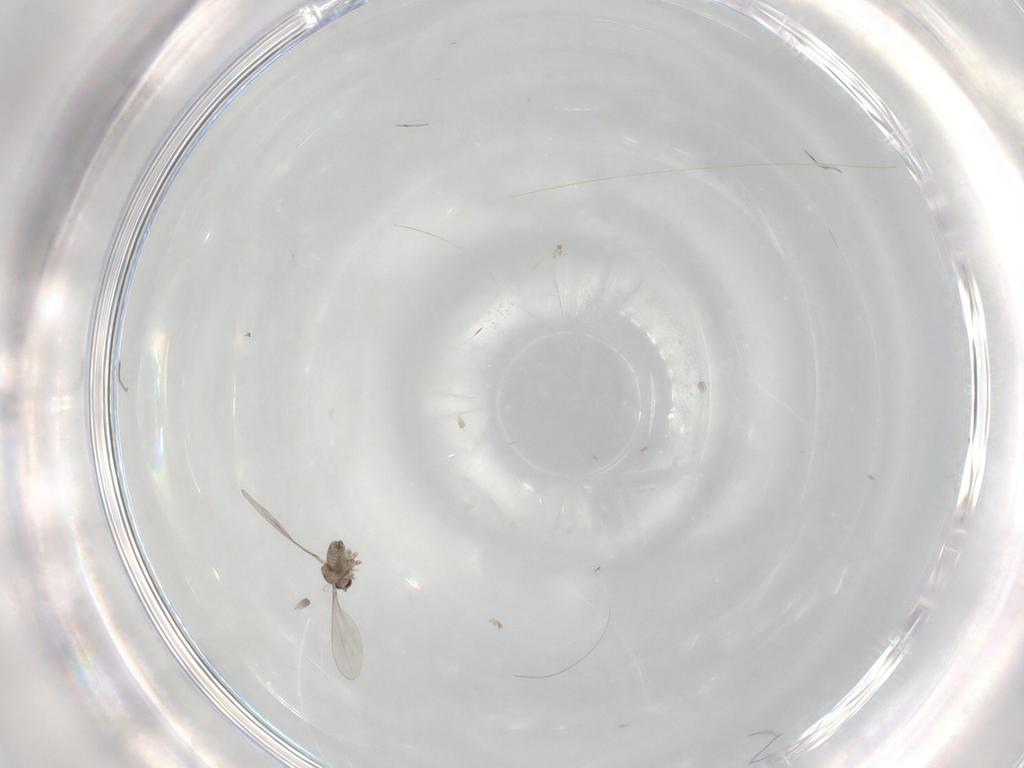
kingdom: Animalia
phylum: Arthropoda
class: Insecta
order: Diptera
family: Cecidomyiidae
